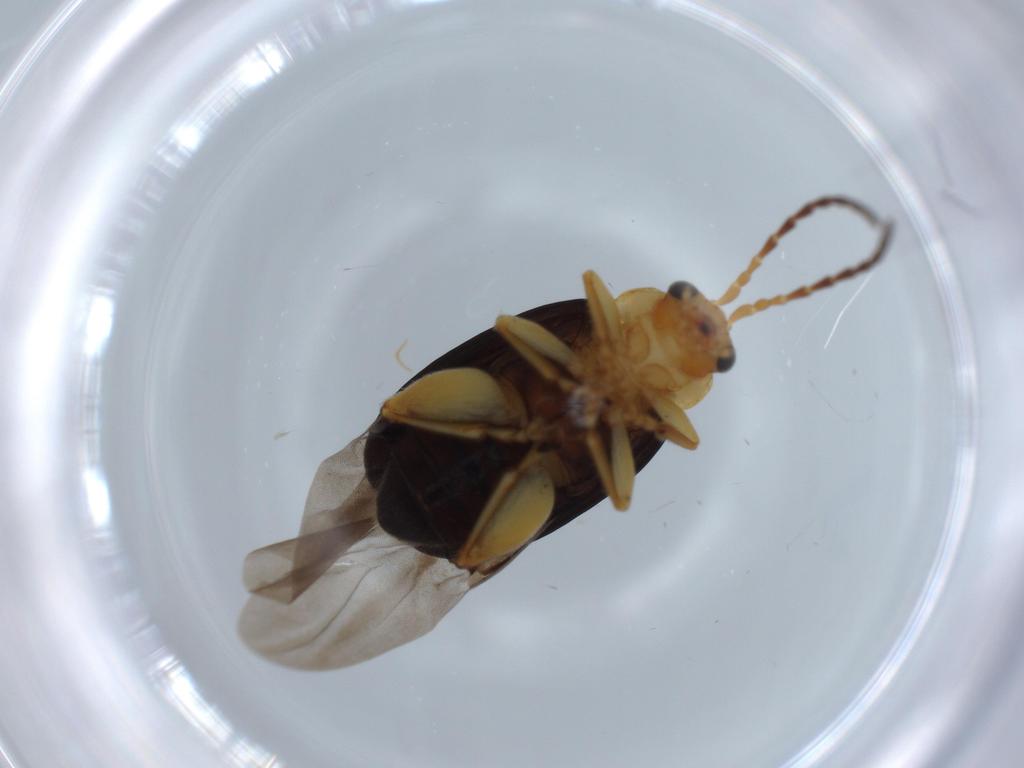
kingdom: Animalia
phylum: Arthropoda
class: Insecta
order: Coleoptera
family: Chrysomelidae
